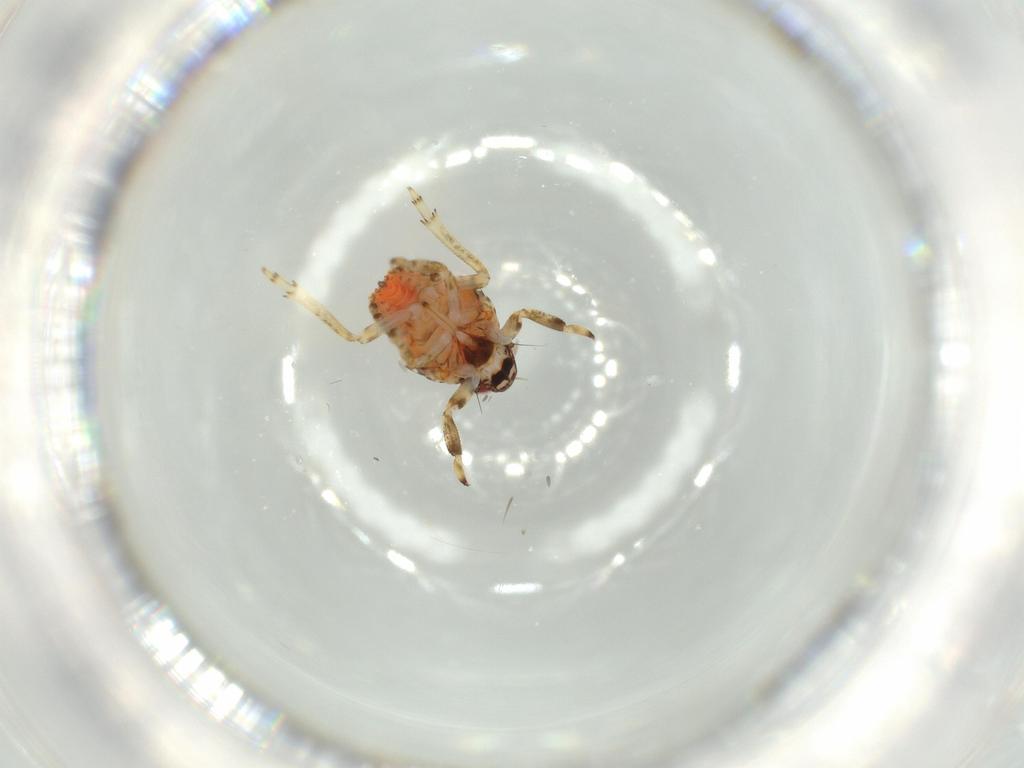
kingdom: Animalia
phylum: Arthropoda
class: Insecta
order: Hemiptera
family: Issidae
